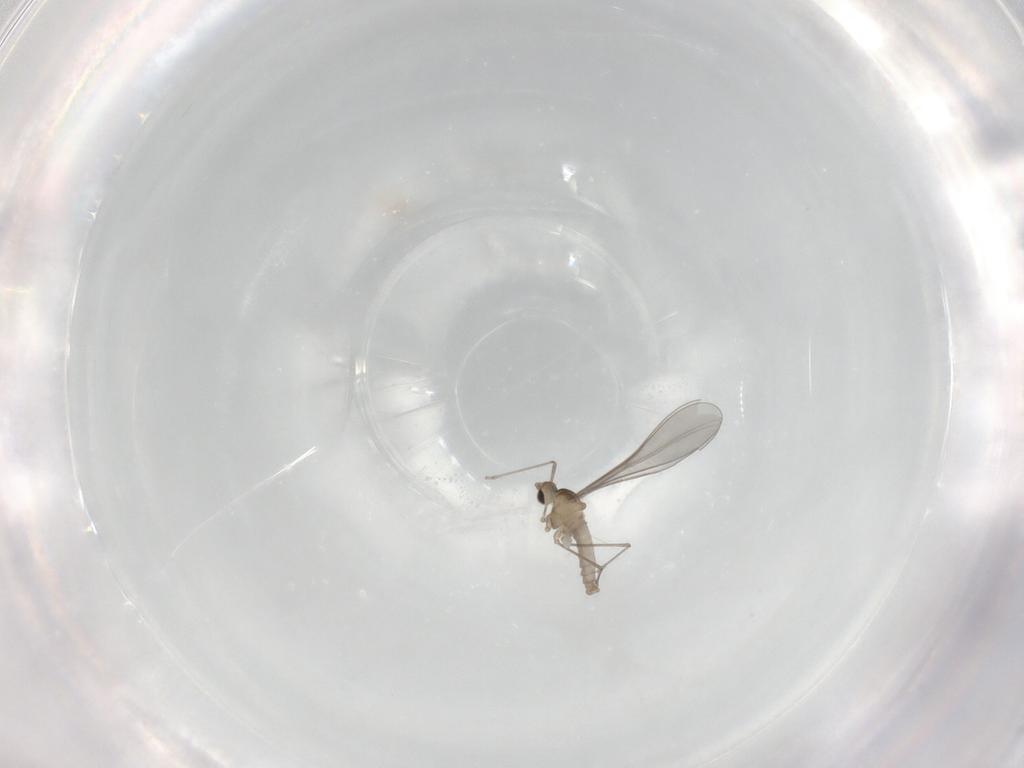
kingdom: Animalia
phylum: Arthropoda
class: Insecta
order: Diptera
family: Cecidomyiidae
